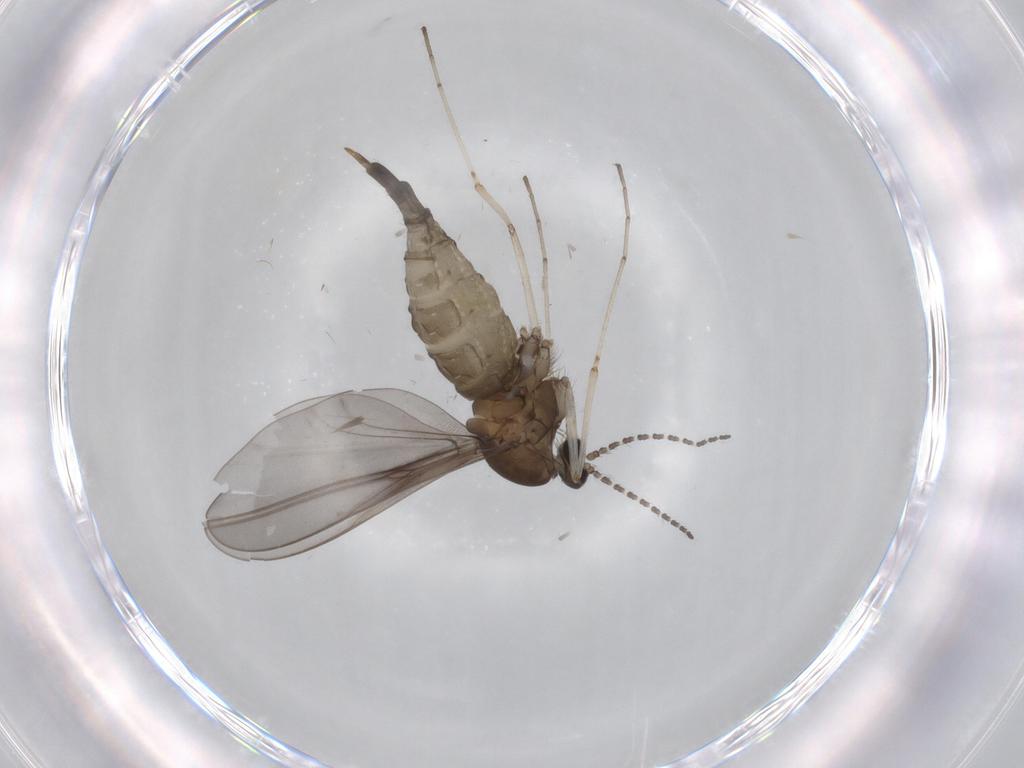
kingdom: Animalia
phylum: Arthropoda
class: Insecta
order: Diptera
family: Cecidomyiidae
